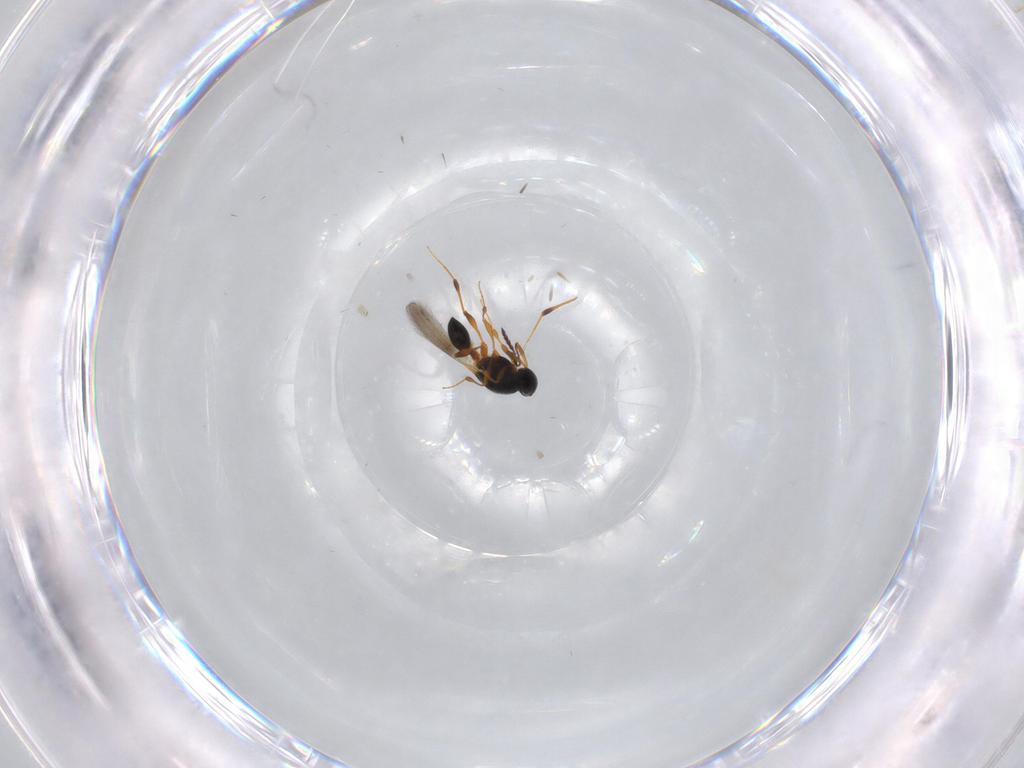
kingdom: Animalia
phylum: Arthropoda
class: Insecta
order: Hymenoptera
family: Platygastridae
